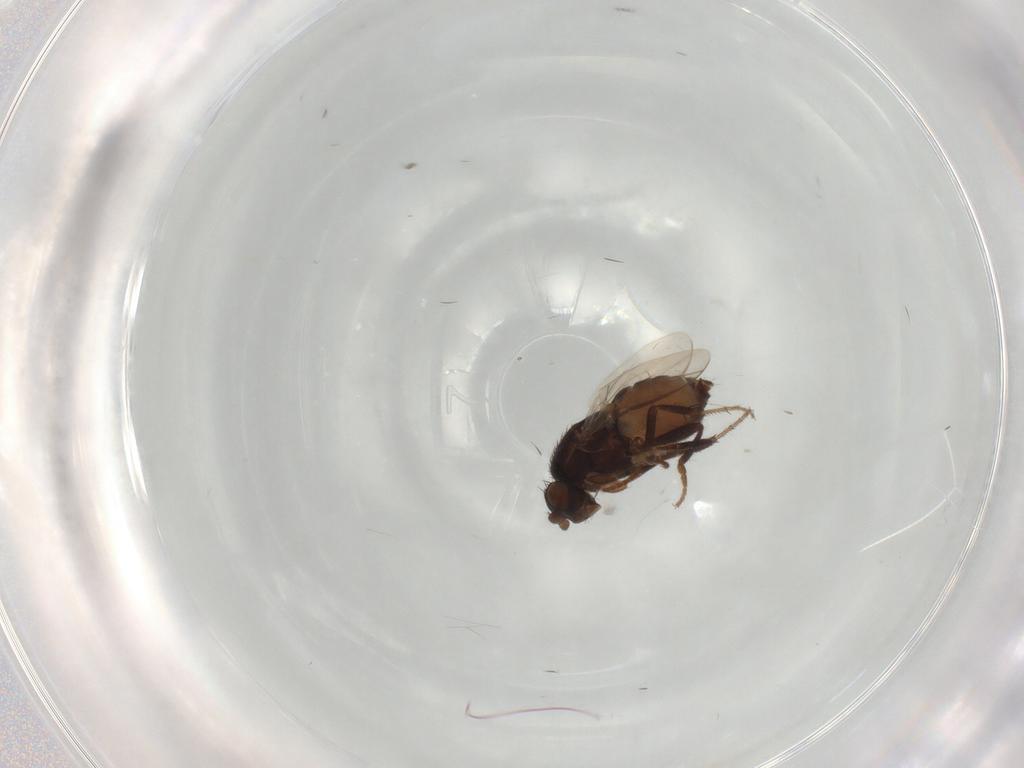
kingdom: Animalia
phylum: Arthropoda
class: Insecta
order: Diptera
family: Sphaeroceridae
